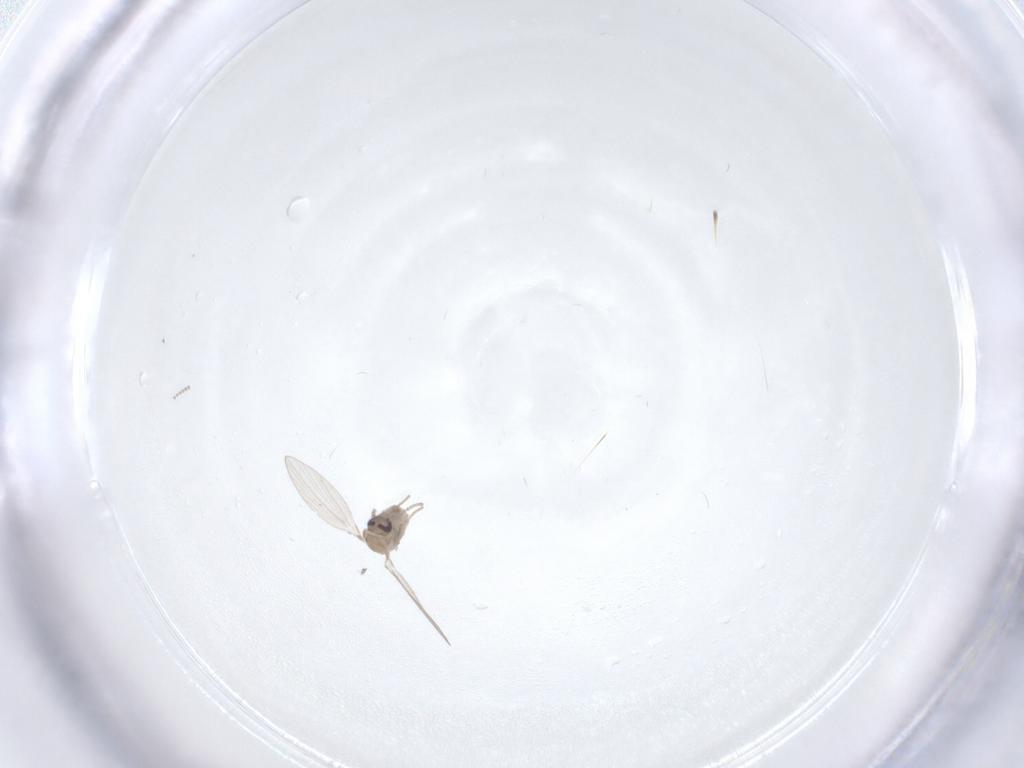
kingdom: Animalia
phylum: Arthropoda
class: Insecta
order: Diptera
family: Psychodidae
